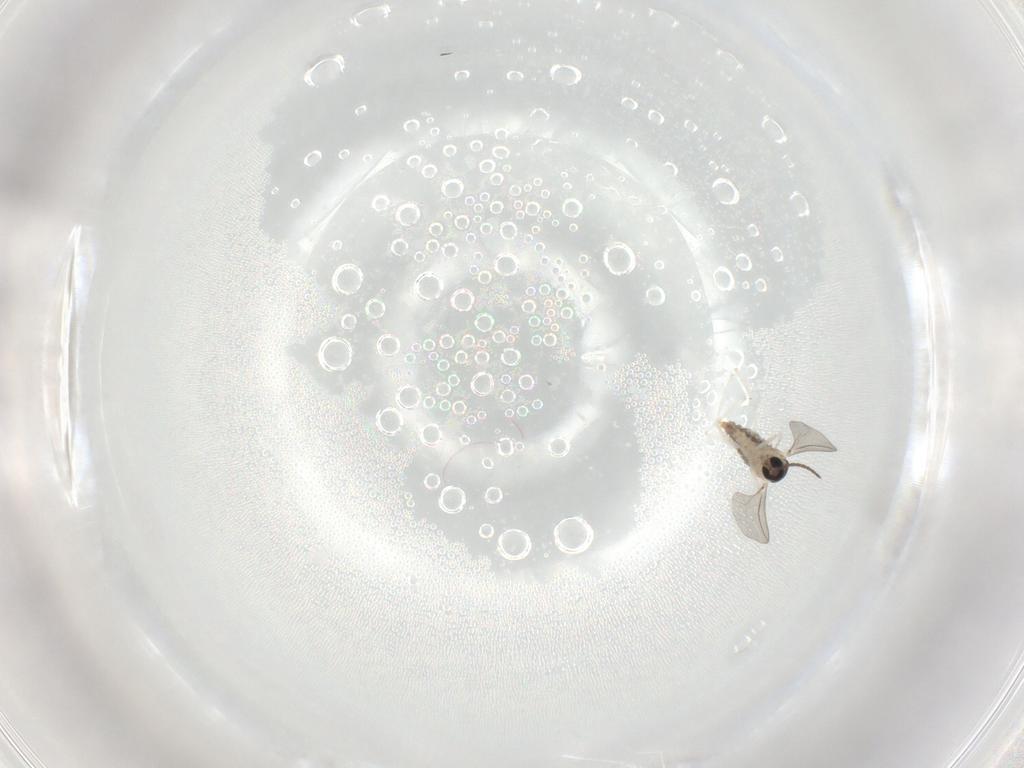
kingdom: Animalia
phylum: Arthropoda
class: Insecta
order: Diptera
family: Cecidomyiidae
